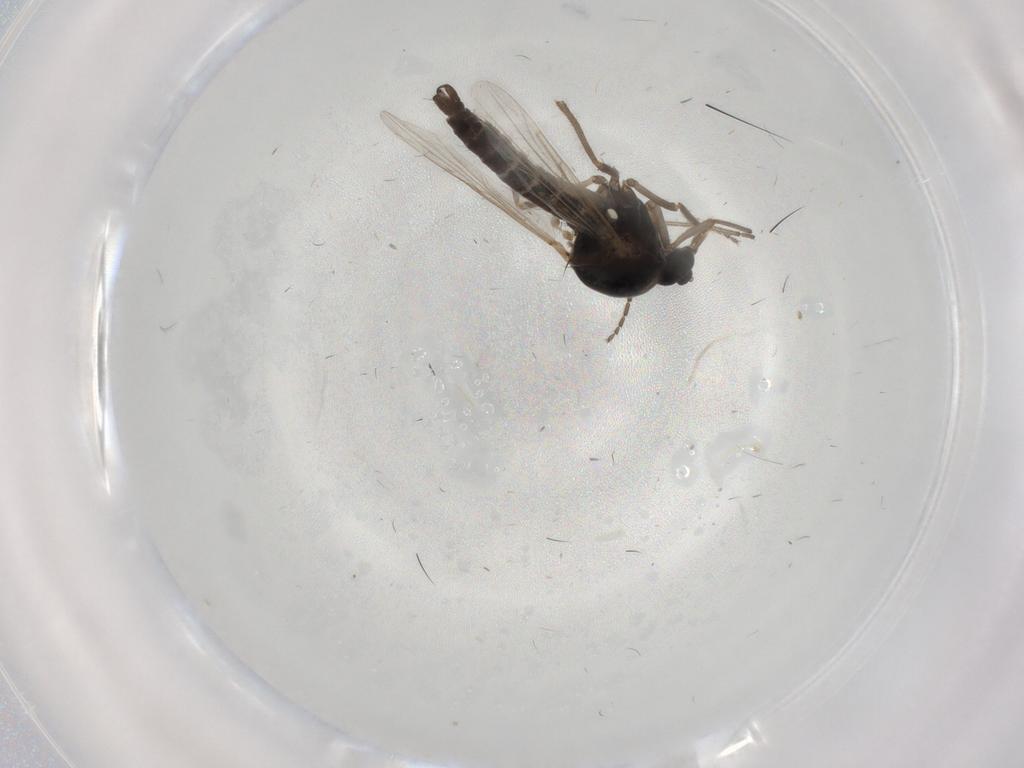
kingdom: Animalia
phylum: Arthropoda
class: Insecta
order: Diptera
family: Ceratopogonidae
